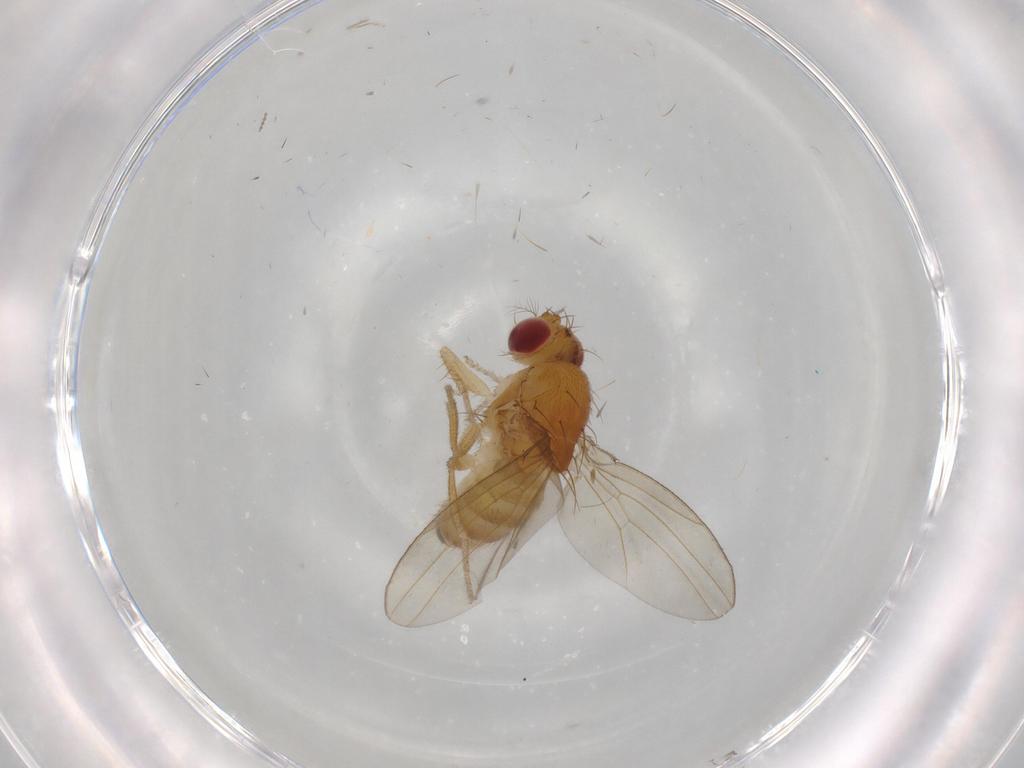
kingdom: Animalia
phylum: Arthropoda
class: Insecta
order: Diptera
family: Drosophilidae
